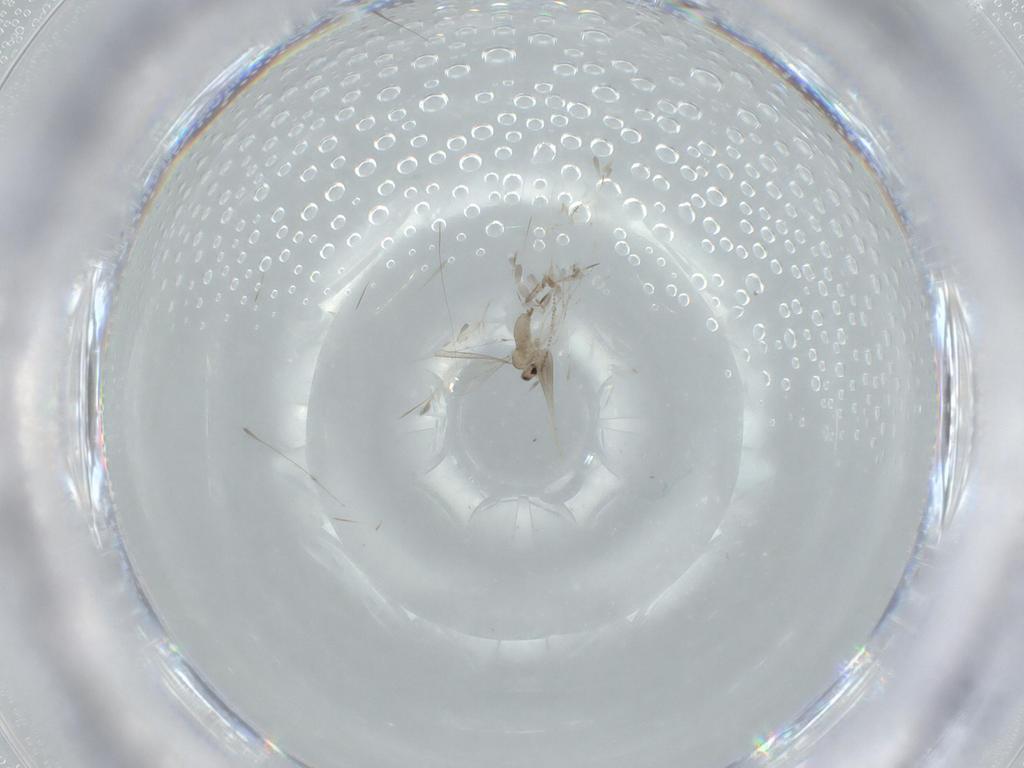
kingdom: Animalia
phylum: Arthropoda
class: Insecta
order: Diptera
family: Cecidomyiidae
